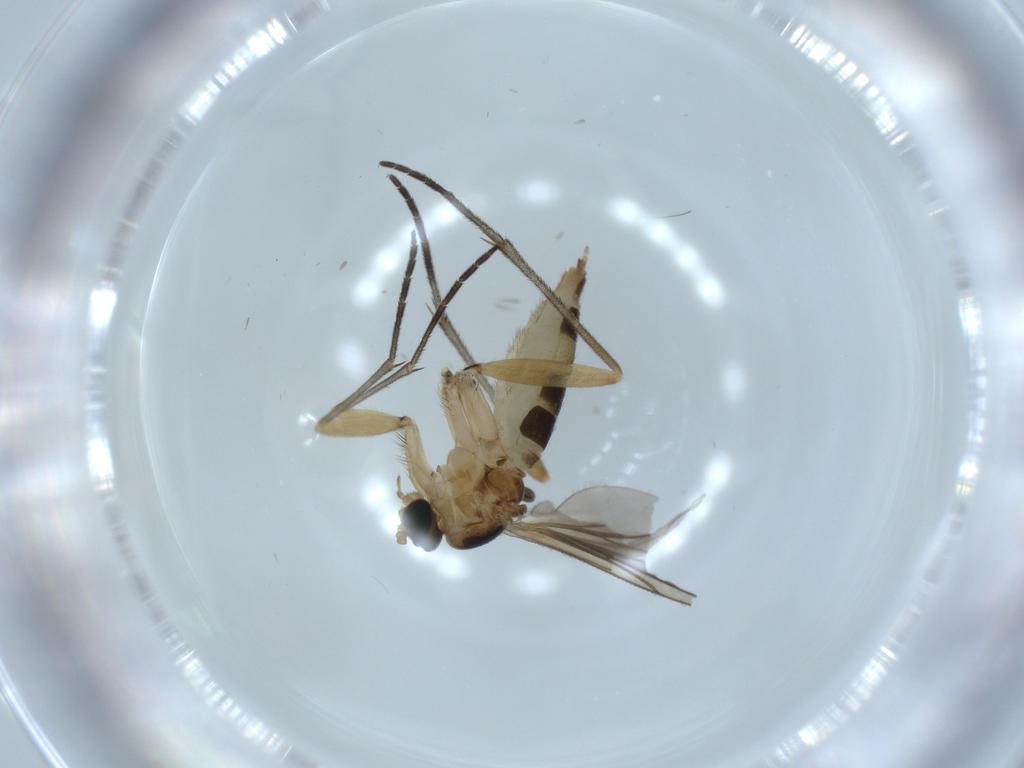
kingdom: Animalia
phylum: Arthropoda
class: Insecta
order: Diptera
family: Sciaridae
